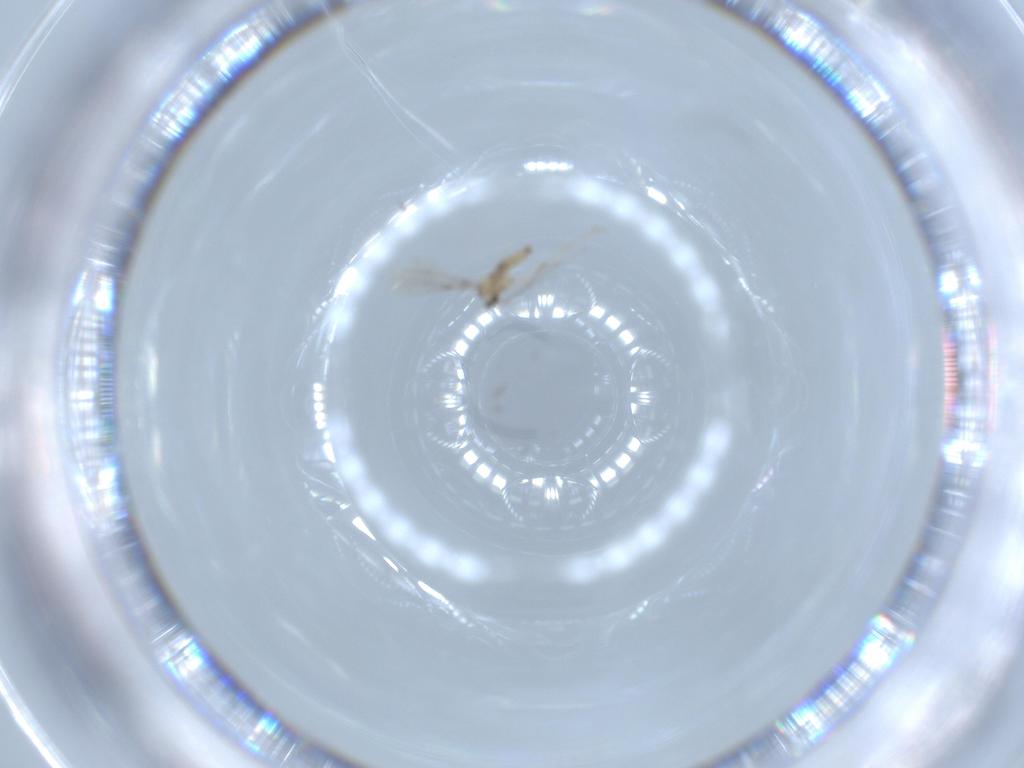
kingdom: Animalia
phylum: Arthropoda
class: Insecta
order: Diptera
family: Cecidomyiidae
